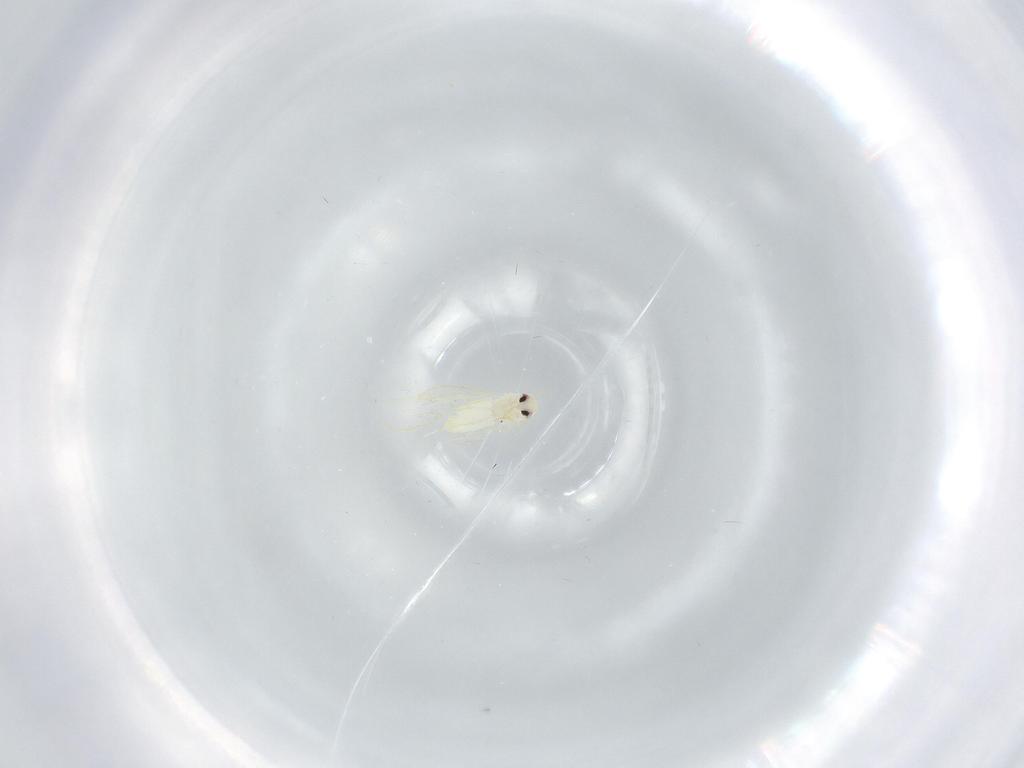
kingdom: Animalia
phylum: Arthropoda
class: Insecta
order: Hemiptera
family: Aleyrodidae
